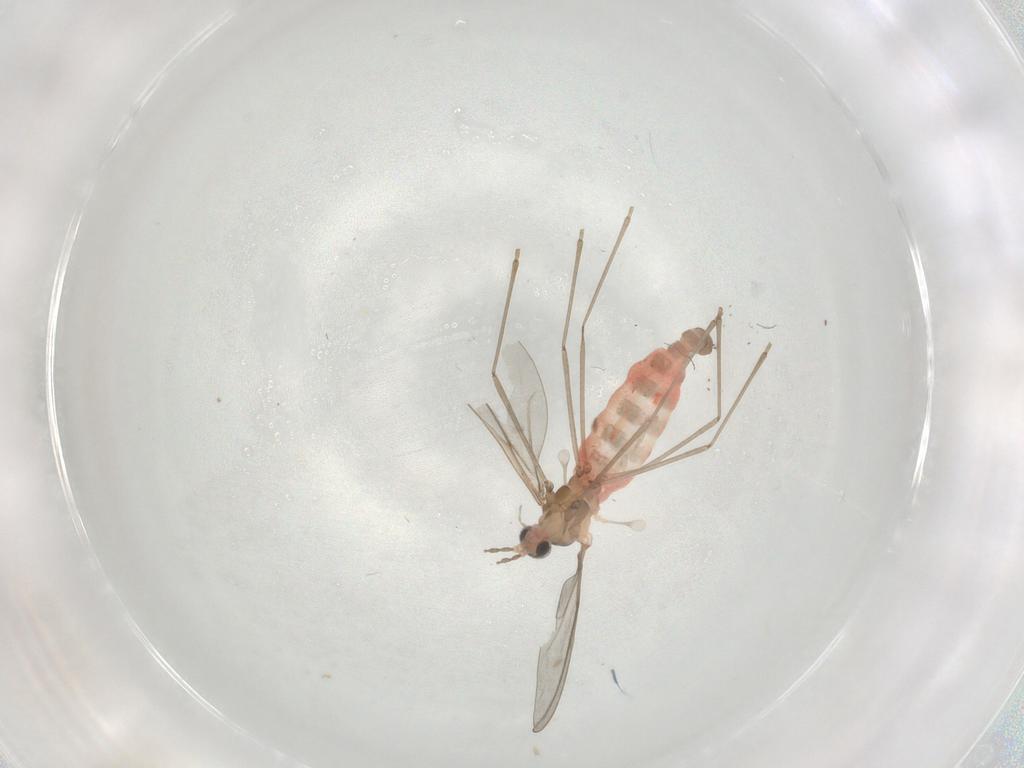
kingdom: Animalia
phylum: Arthropoda
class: Insecta
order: Diptera
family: Cecidomyiidae
